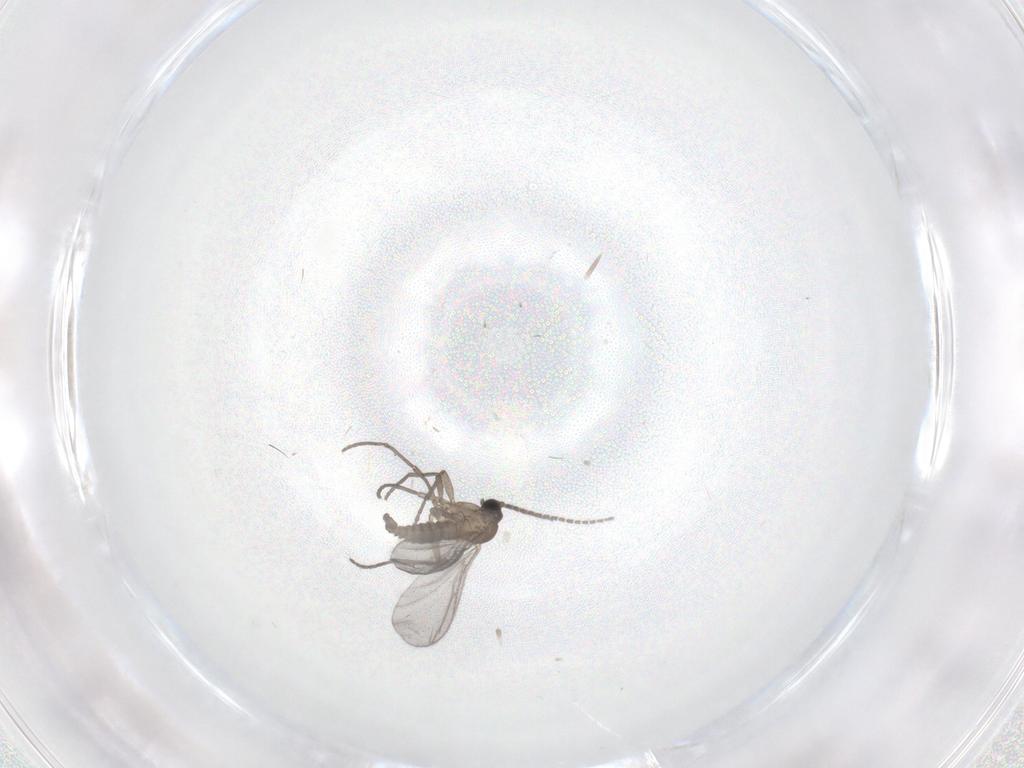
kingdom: Animalia
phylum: Arthropoda
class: Insecta
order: Diptera
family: Sciaridae
